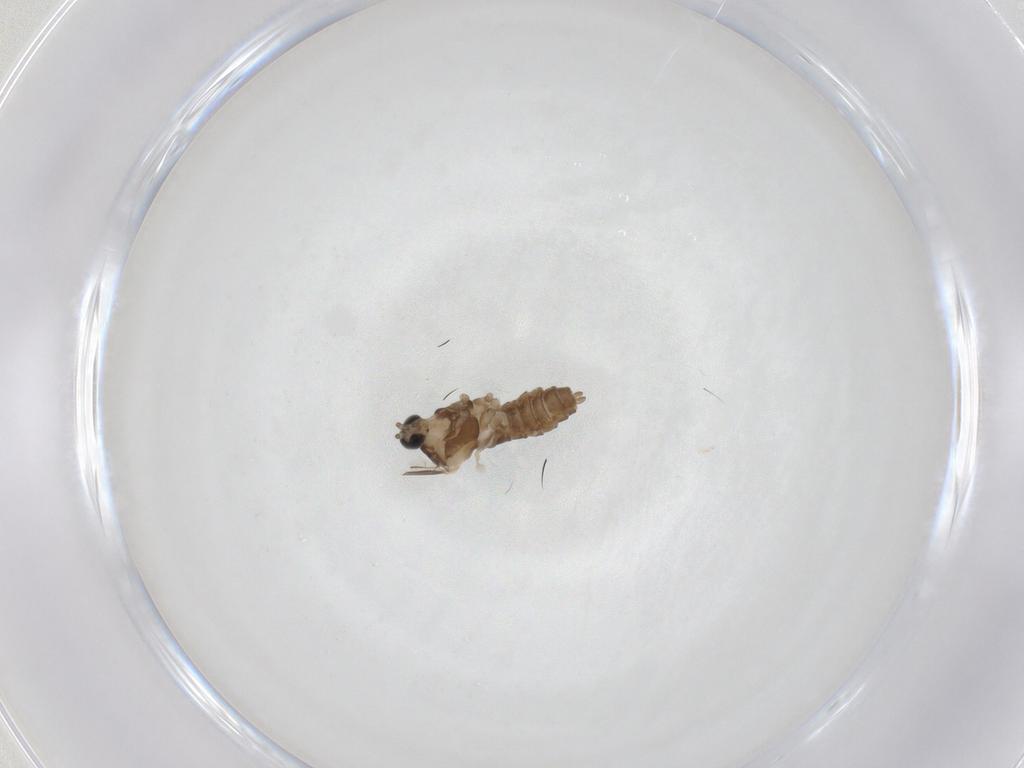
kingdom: Animalia
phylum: Arthropoda
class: Insecta
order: Diptera
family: Cecidomyiidae
